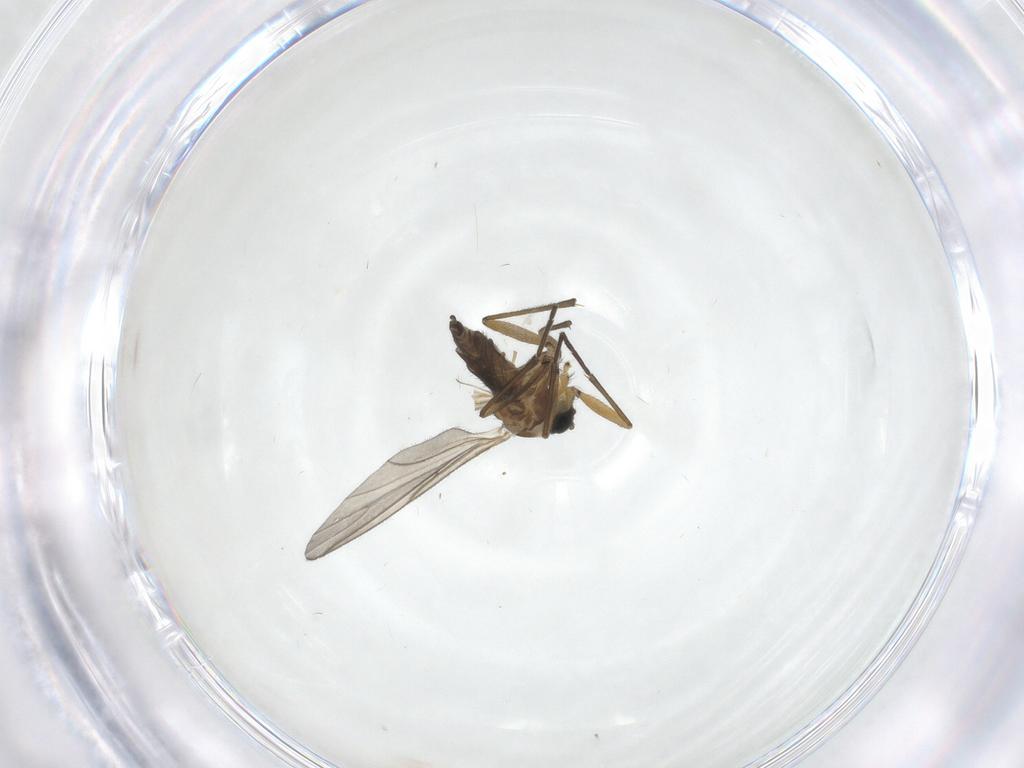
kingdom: Animalia
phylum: Arthropoda
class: Insecta
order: Diptera
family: Sciaridae
